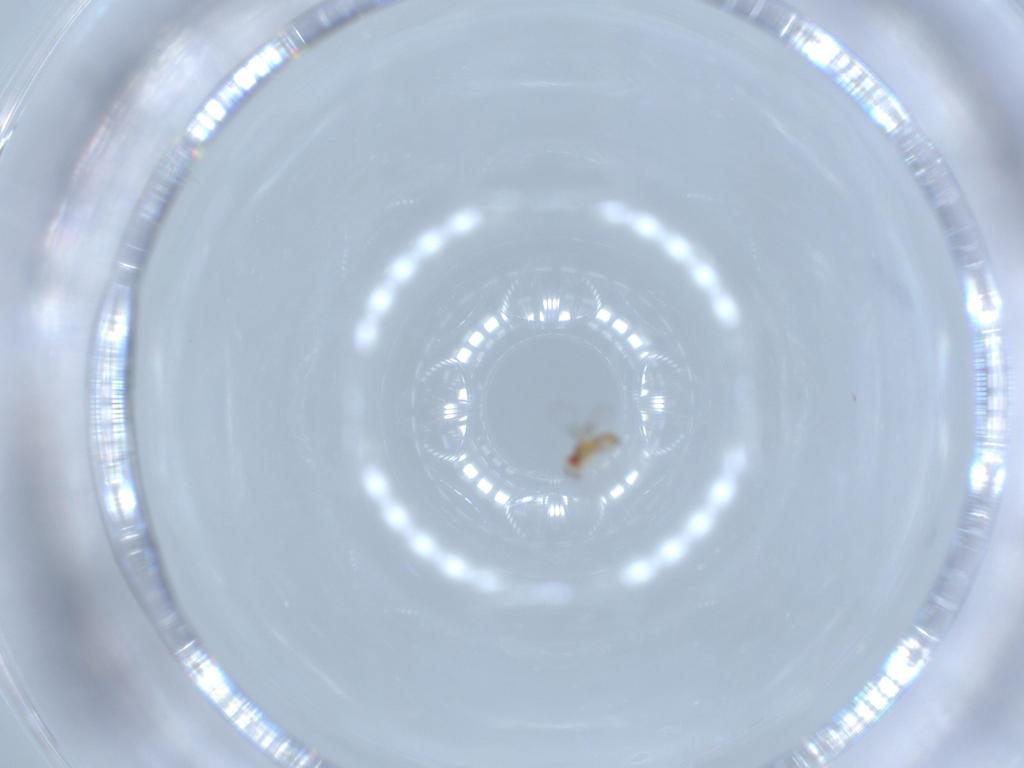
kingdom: Animalia
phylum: Arthropoda
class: Insecta
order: Hymenoptera
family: Trichogrammatidae
